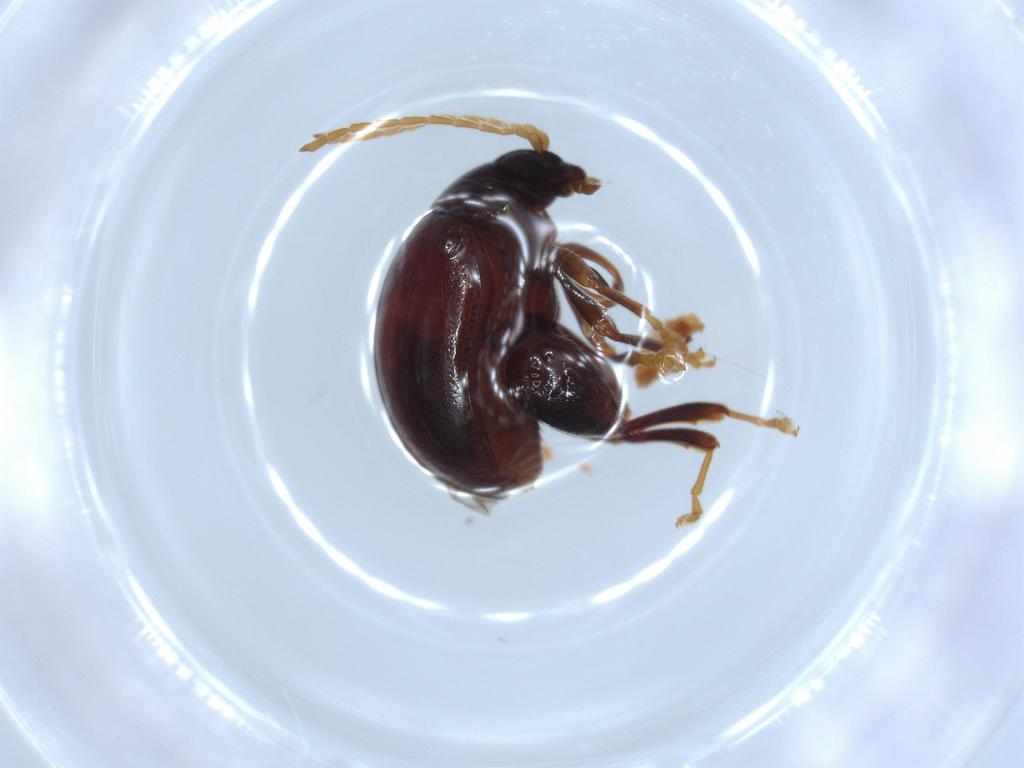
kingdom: Animalia
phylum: Arthropoda
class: Insecta
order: Coleoptera
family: Chrysomelidae
